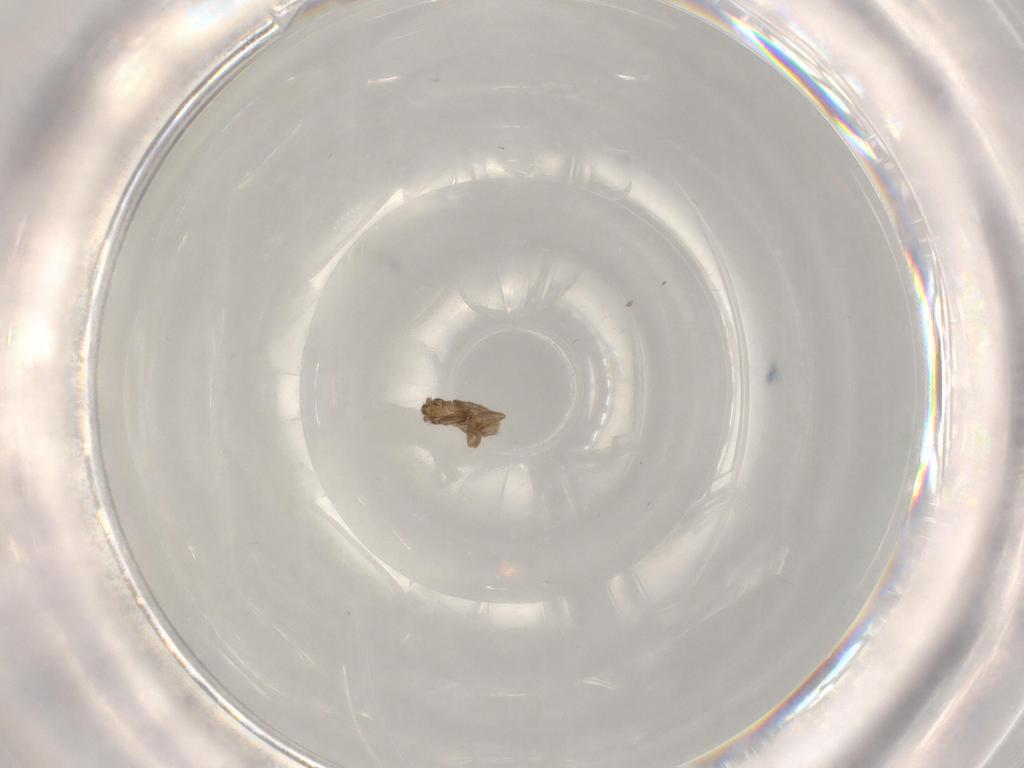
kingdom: Animalia
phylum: Arthropoda
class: Insecta
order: Diptera
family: Phoridae
